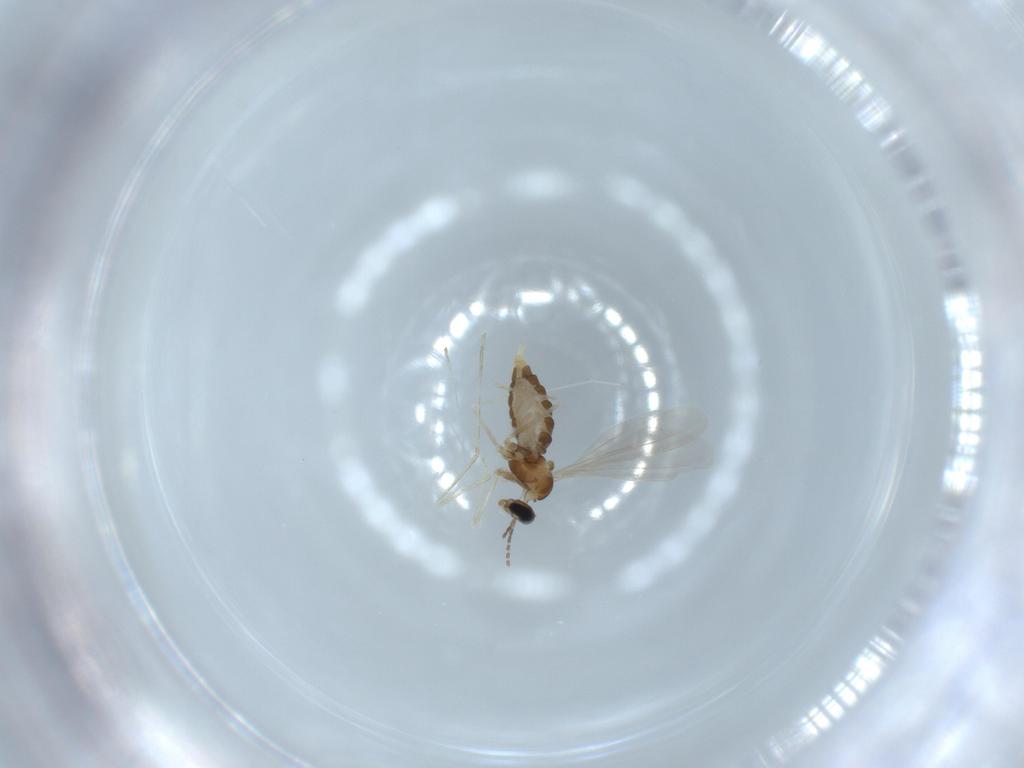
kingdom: Animalia
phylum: Arthropoda
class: Insecta
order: Diptera
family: Cecidomyiidae
